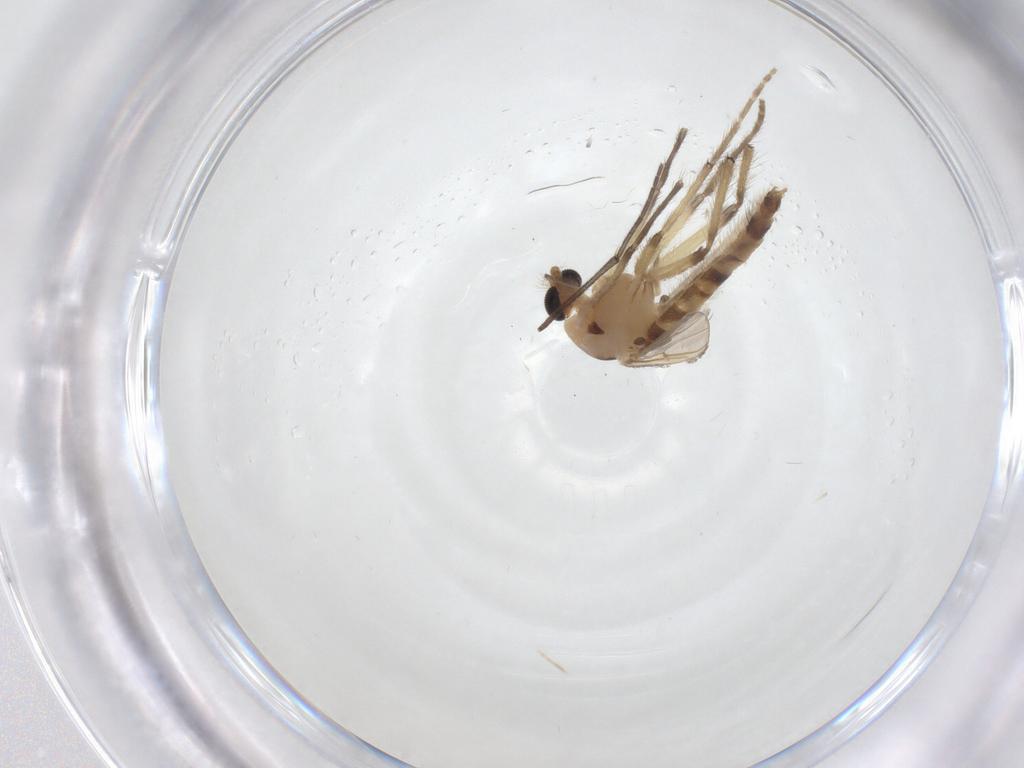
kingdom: Animalia
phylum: Arthropoda
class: Insecta
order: Diptera
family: Chironomidae
